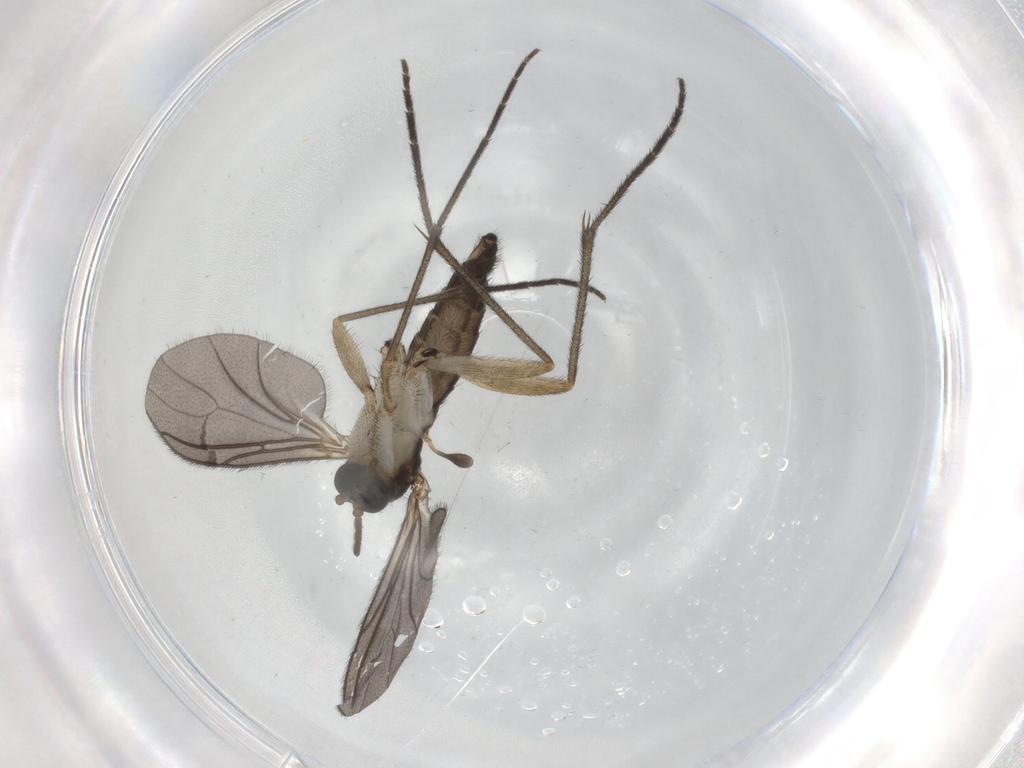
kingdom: Animalia
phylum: Arthropoda
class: Insecta
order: Diptera
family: Sciaridae
